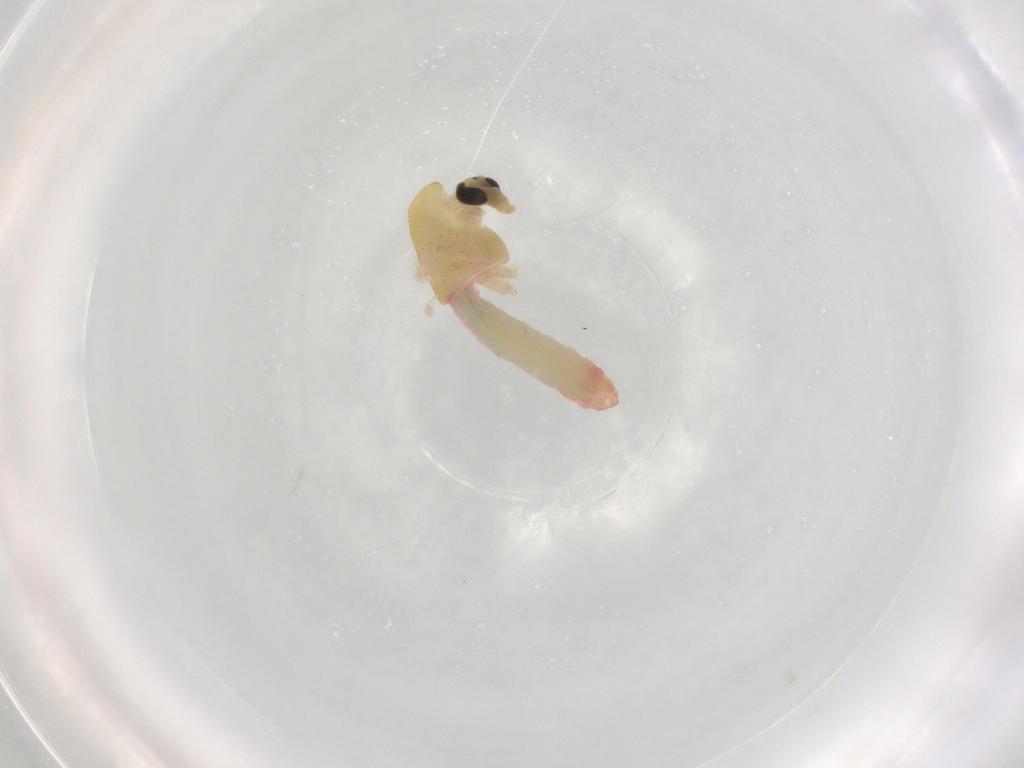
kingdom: Animalia
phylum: Arthropoda
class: Insecta
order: Diptera
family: Chironomidae
